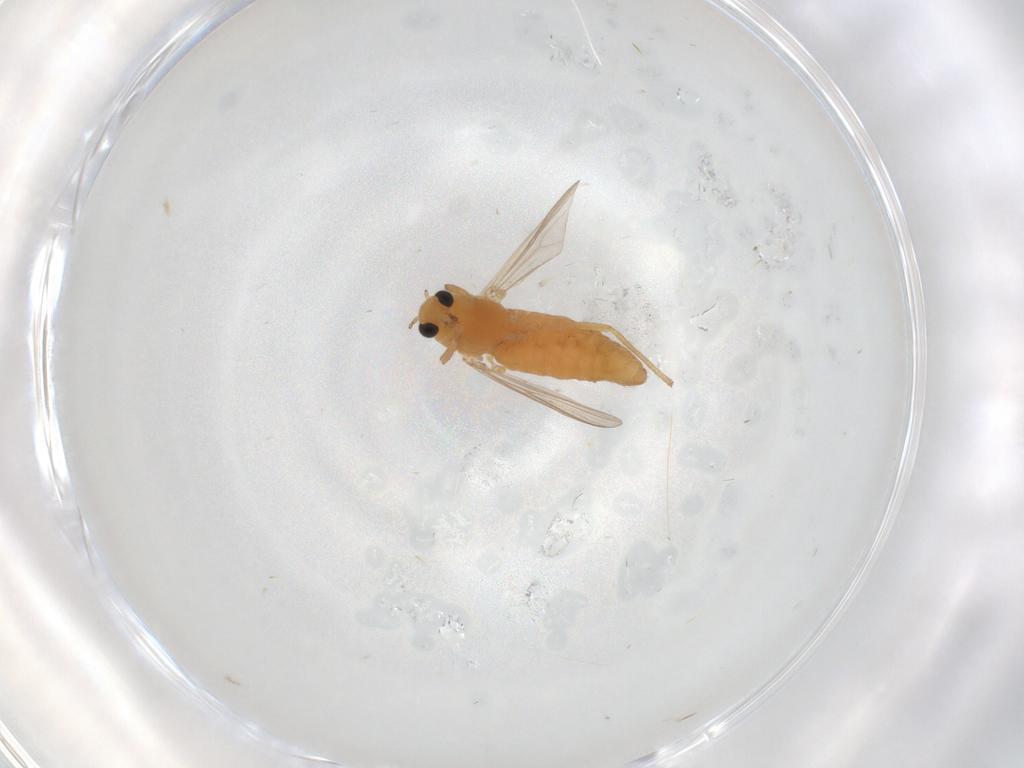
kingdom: Animalia
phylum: Arthropoda
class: Insecta
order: Diptera
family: Chironomidae
